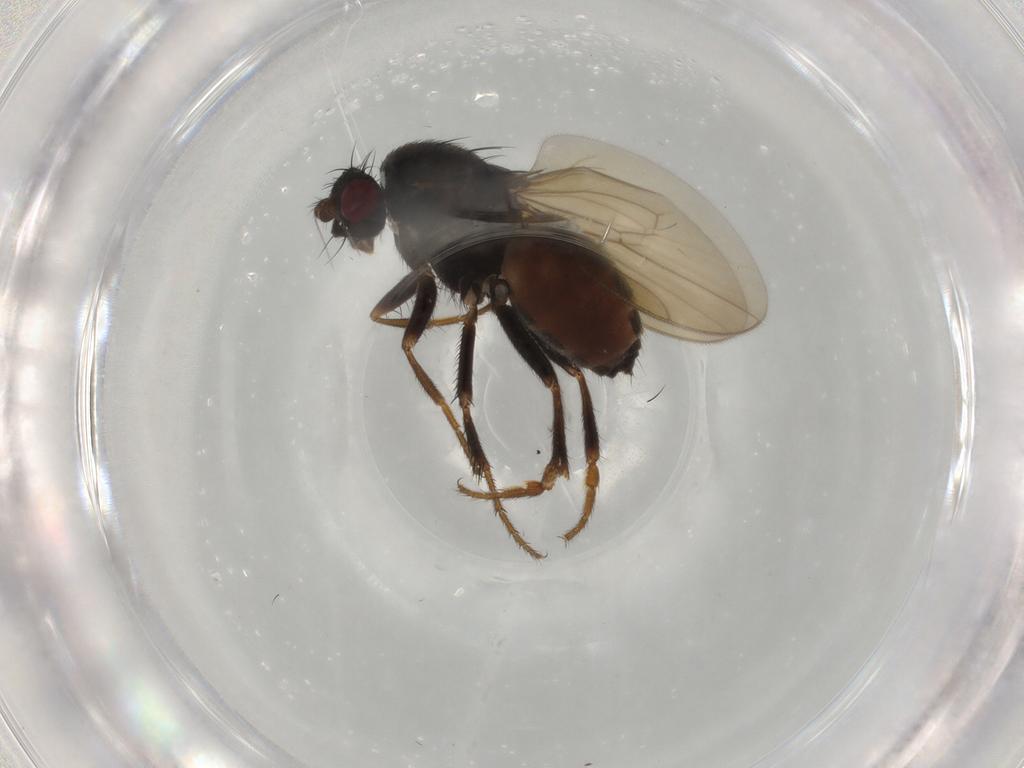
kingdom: Animalia
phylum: Arthropoda
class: Insecta
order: Diptera
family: Sphaeroceridae
